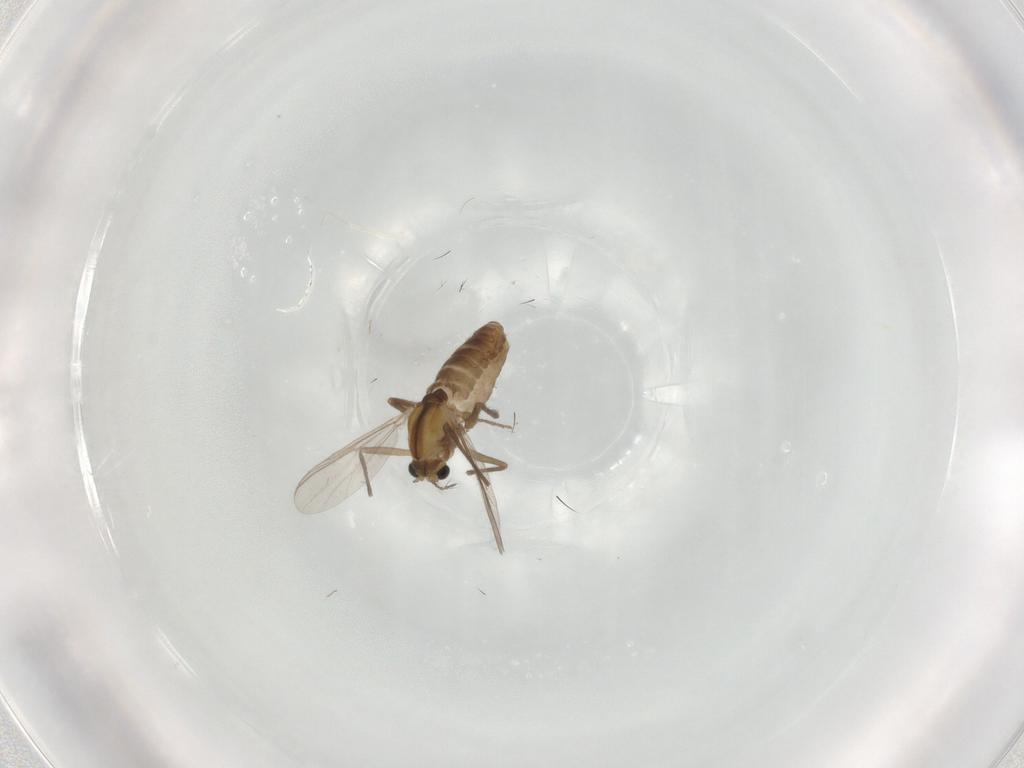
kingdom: Animalia
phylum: Arthropoda
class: Insecta
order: Diptera
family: Chironomidae
